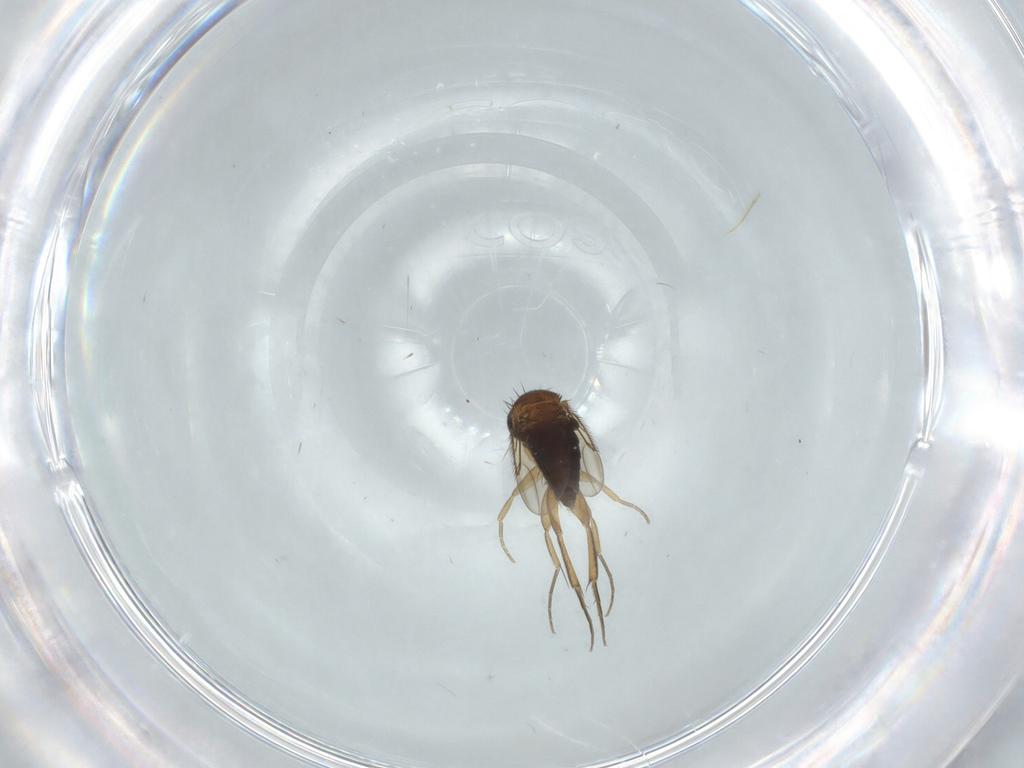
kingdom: Animalia
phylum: Arthropoda
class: Insecta
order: Diptera
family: Phoridae
